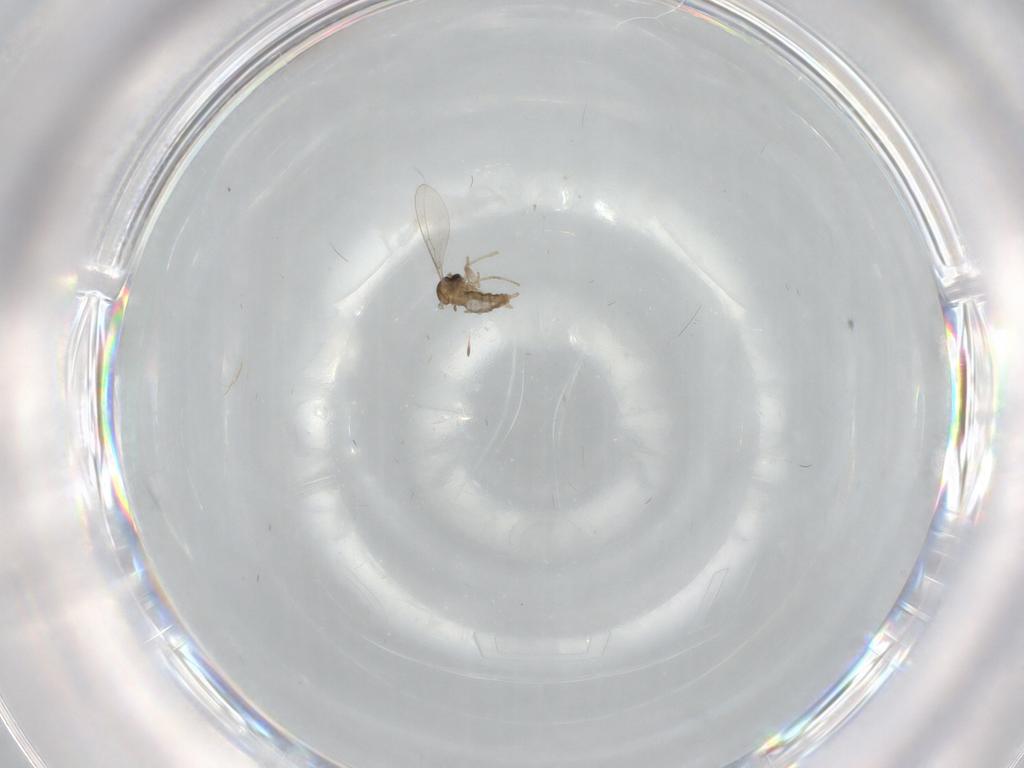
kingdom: Animalia
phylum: Arthropoda
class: Insecta
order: Diptera
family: Cecidomyiidae
